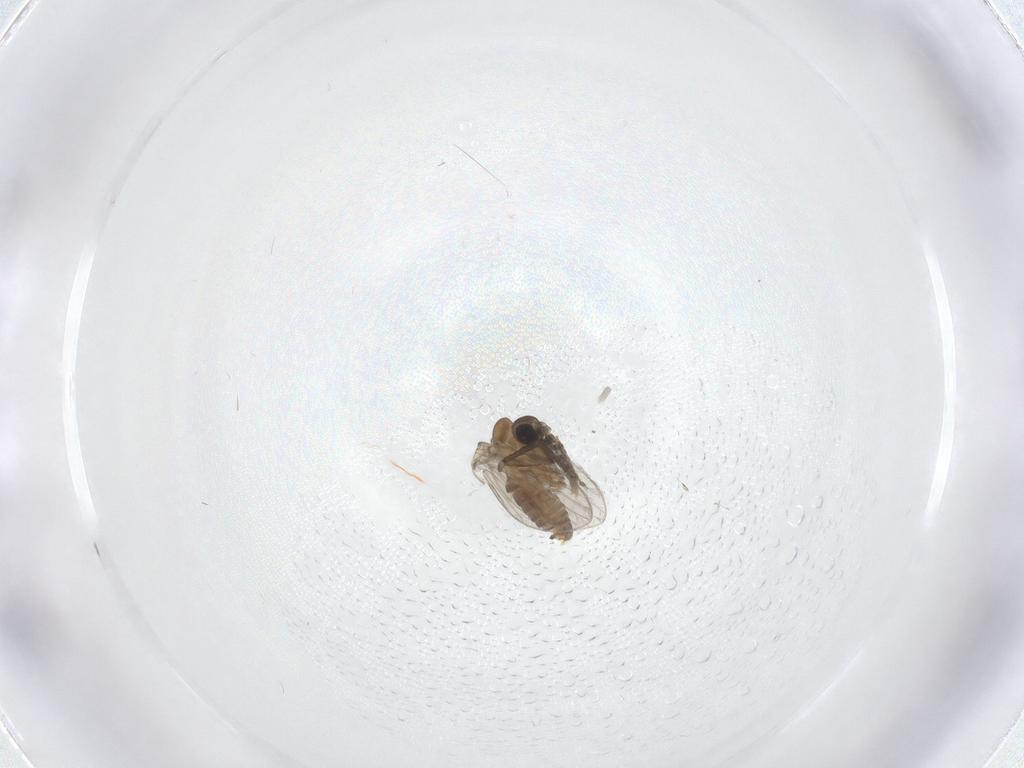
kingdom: Animalia
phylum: Arthropoda
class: Insecta
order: Diptera
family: Psychodidae
